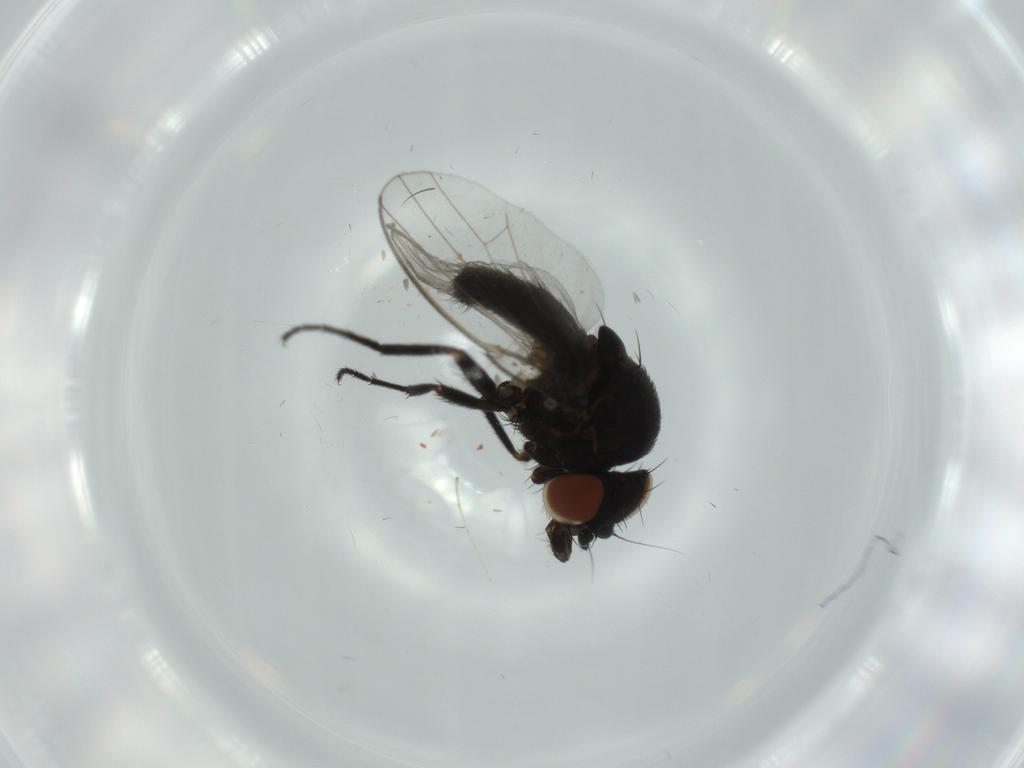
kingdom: Animalia
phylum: Arthropoda
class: Insecta
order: Diptera
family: Milichiidae
